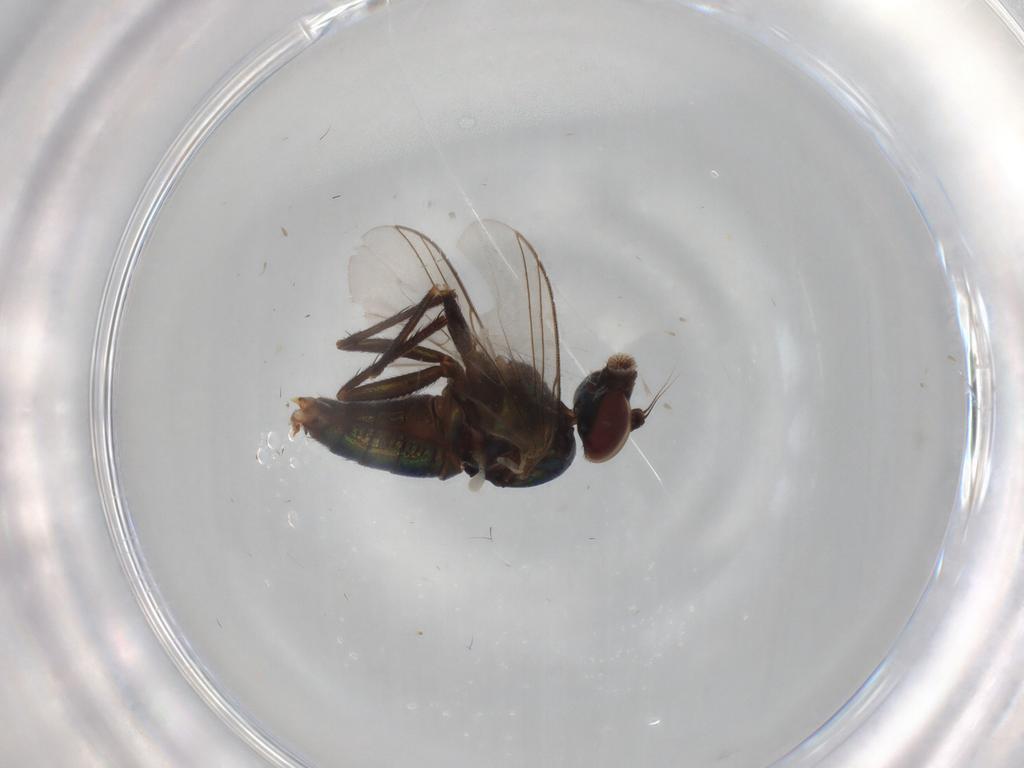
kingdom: Animalia
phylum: Arthropoda
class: Insecta
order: Diptera
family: Dolichopodidae
